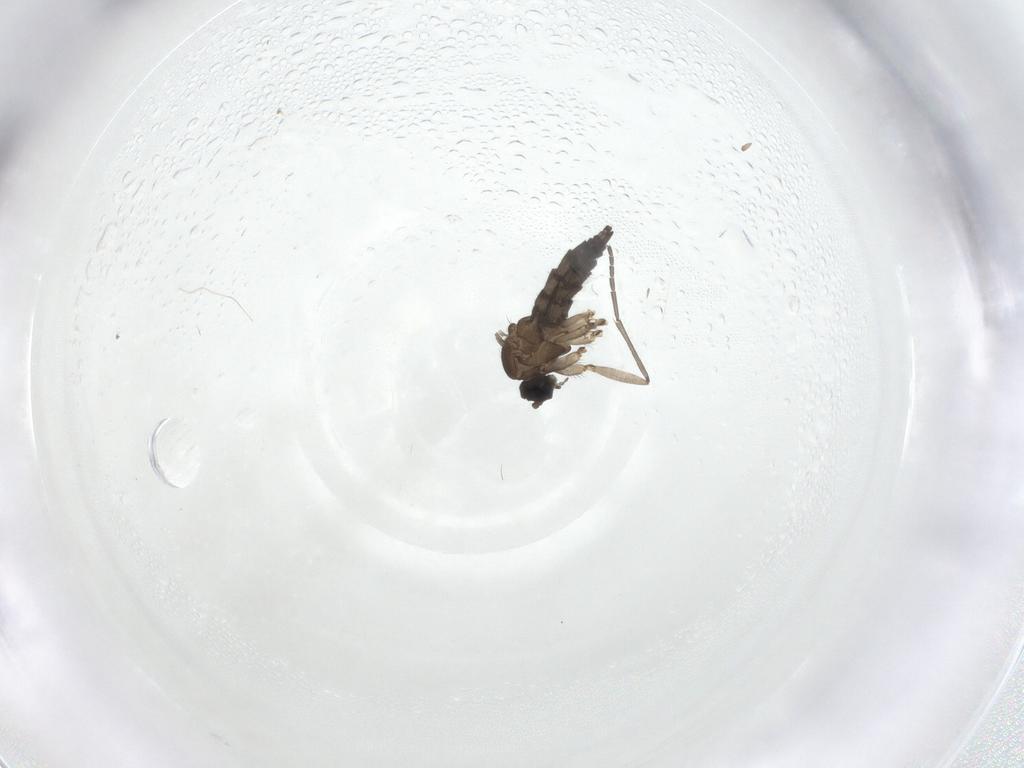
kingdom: Animalia
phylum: Arthropoda
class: Insecta
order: Diptera
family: Sciaridae
